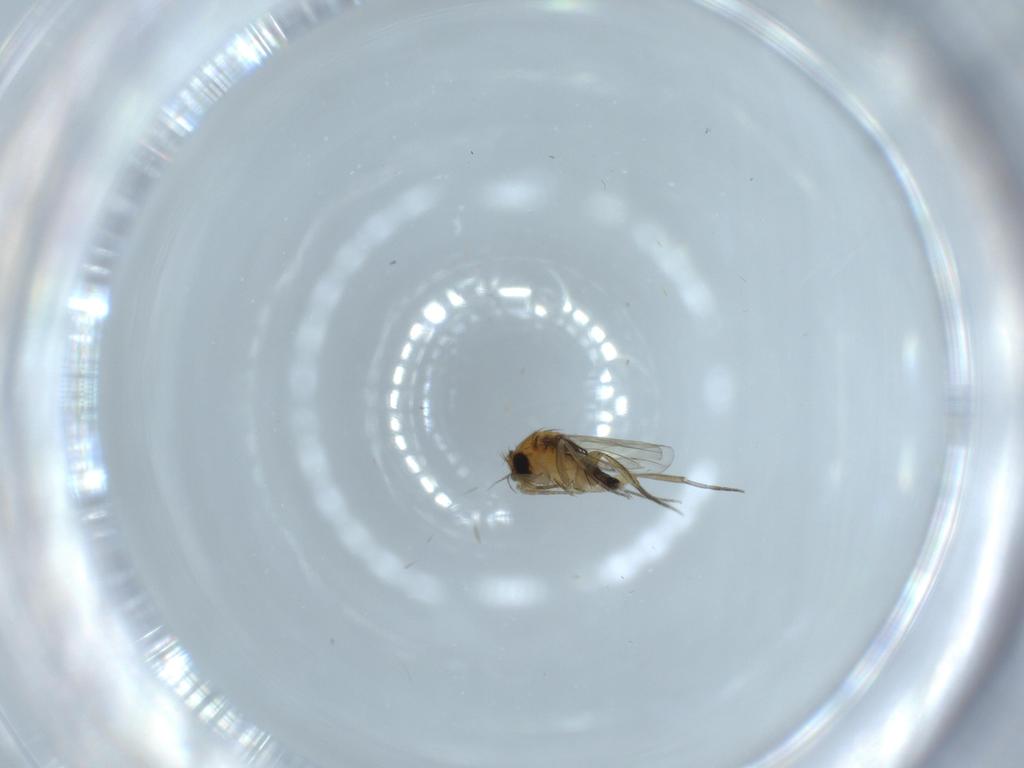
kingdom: Animalia
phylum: Arthropoda
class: Insecta
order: Diptera
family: Phoridae
